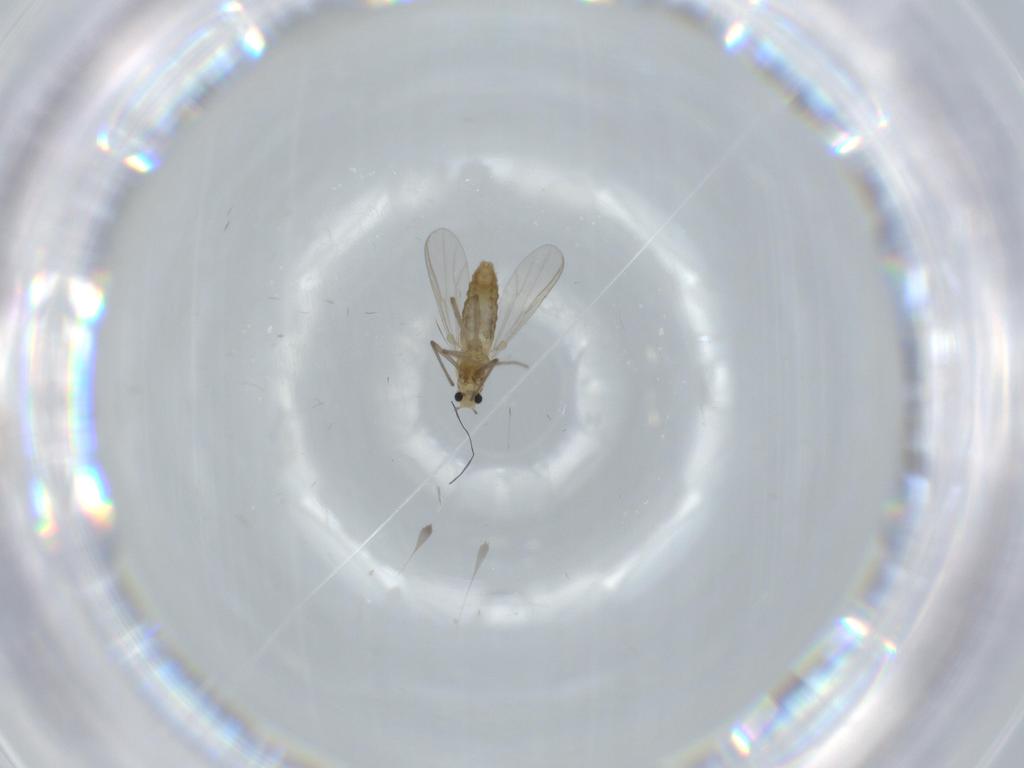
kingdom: Animalia
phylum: Arthropoda
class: Insecta
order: Diptera
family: Chironomidae
